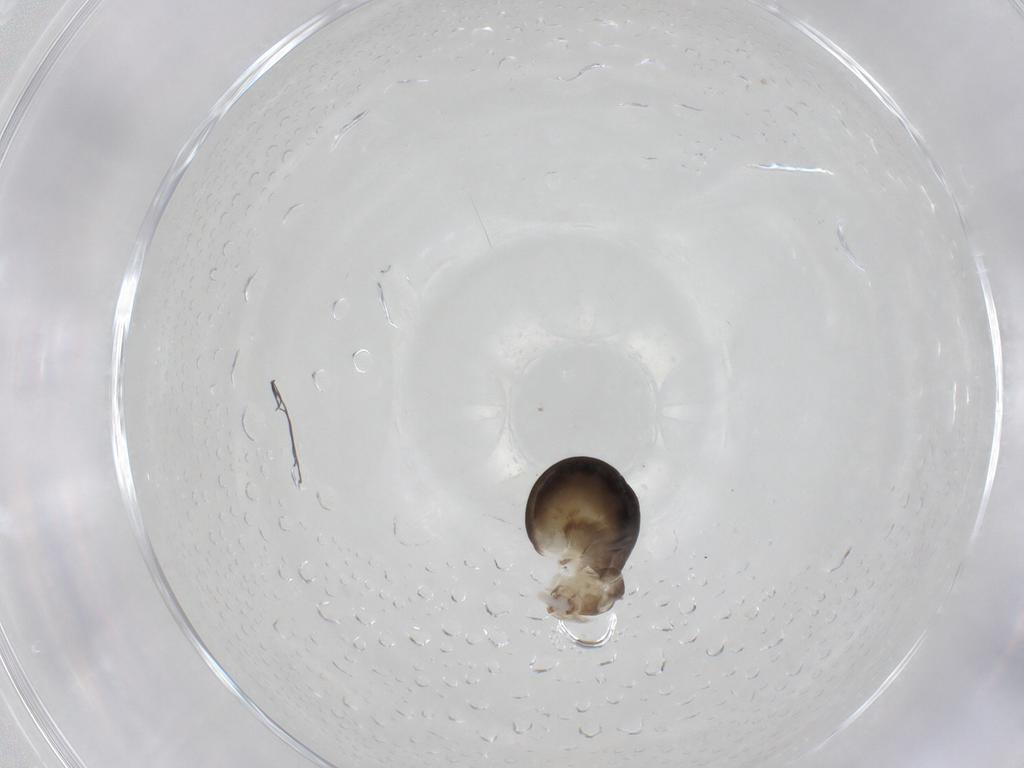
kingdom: Animalia
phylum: Arthropoda
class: Insecta
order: Hymenoptera
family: Dryinidae
